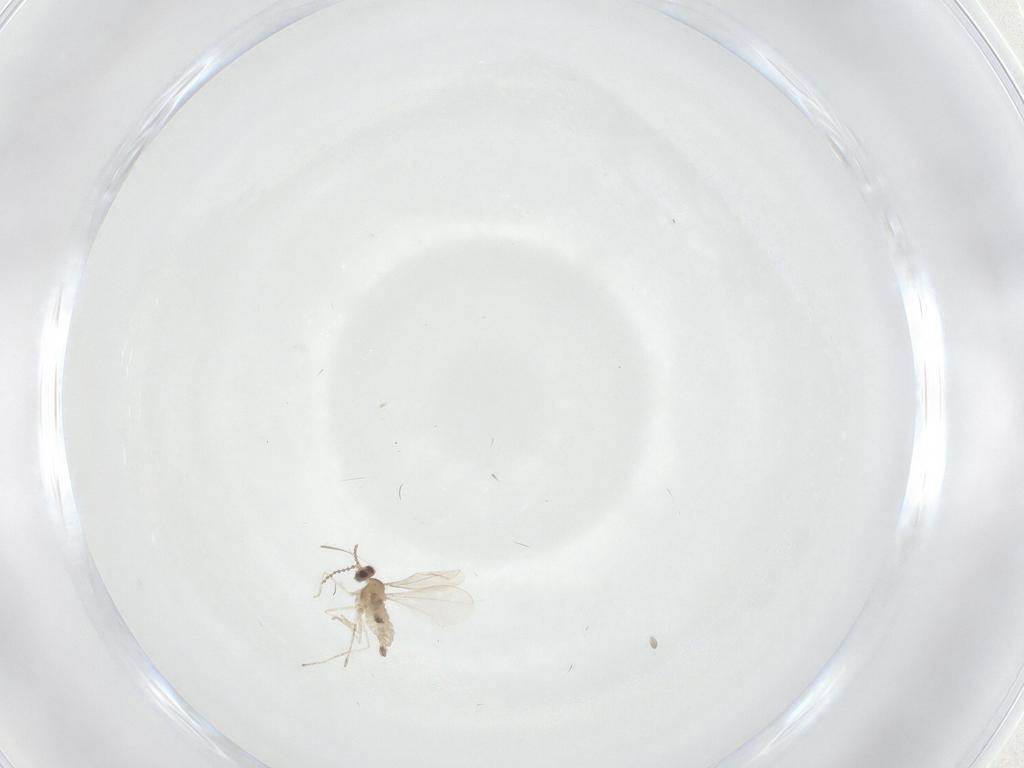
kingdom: Animalia
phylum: Arthropoda
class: Insecta
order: Diptera
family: Cecidomyiidae
